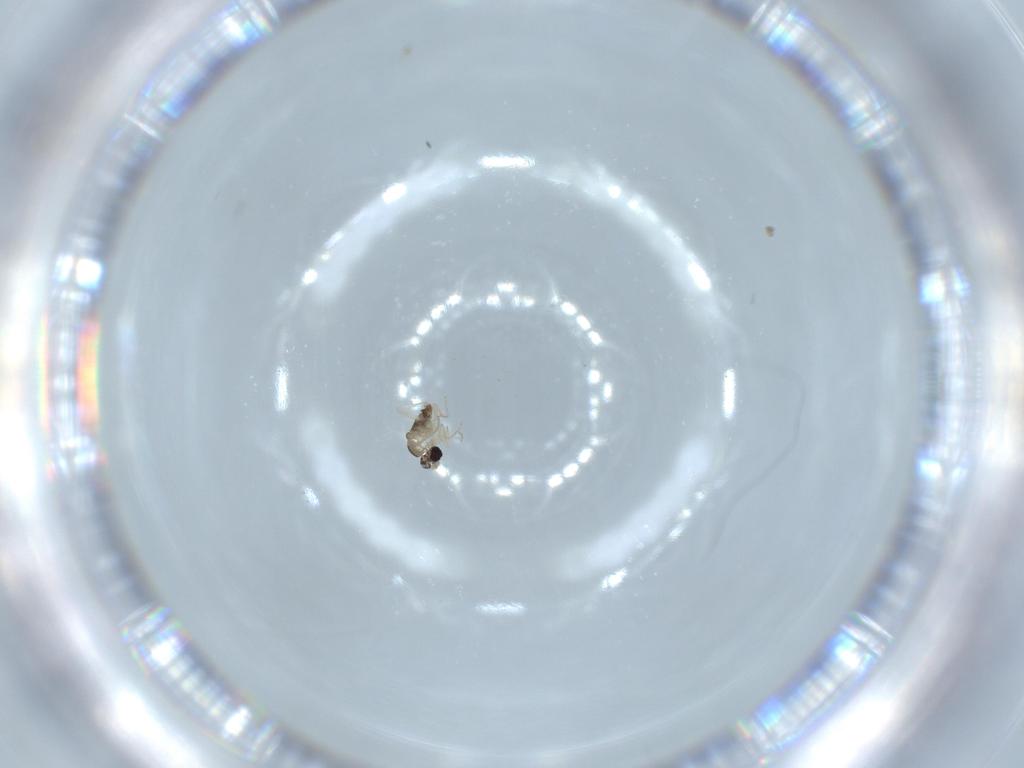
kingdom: Animalia
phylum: Arthropoda
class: Insecta
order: Diptera
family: Cecidomyiidae
